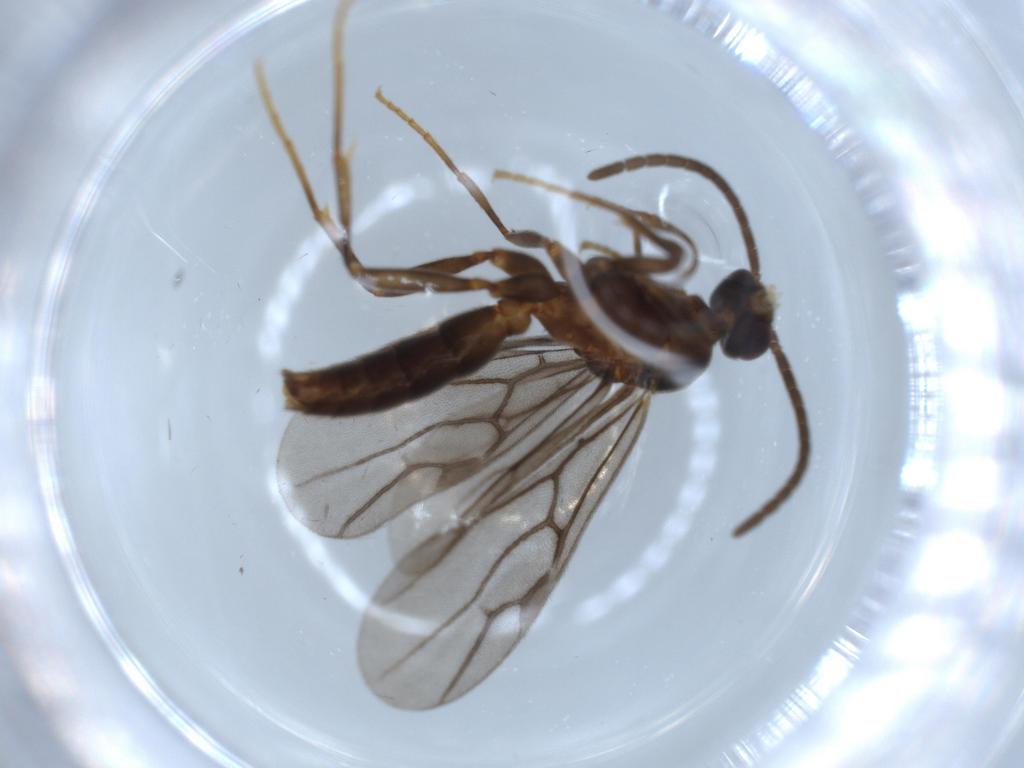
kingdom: Animalia
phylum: Arthropoda
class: Insecta
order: Hymenoptera
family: Formicidae
